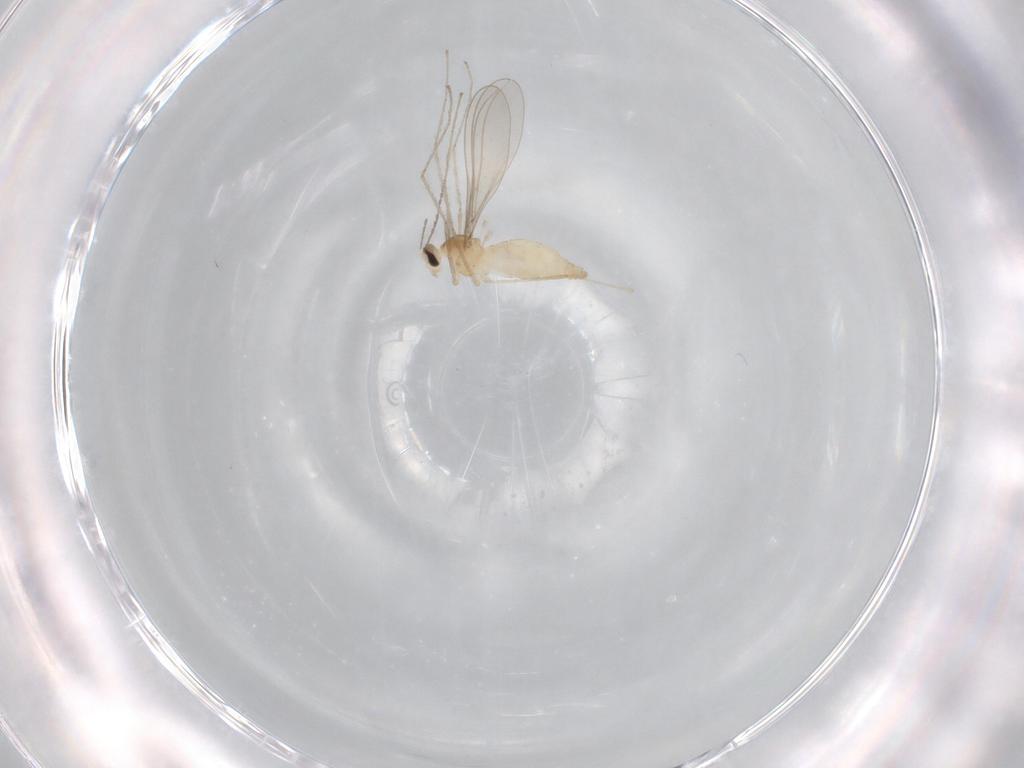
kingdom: Animalia
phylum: Arthropoda
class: Insecta
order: Diptera
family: Cecidomyiidae
